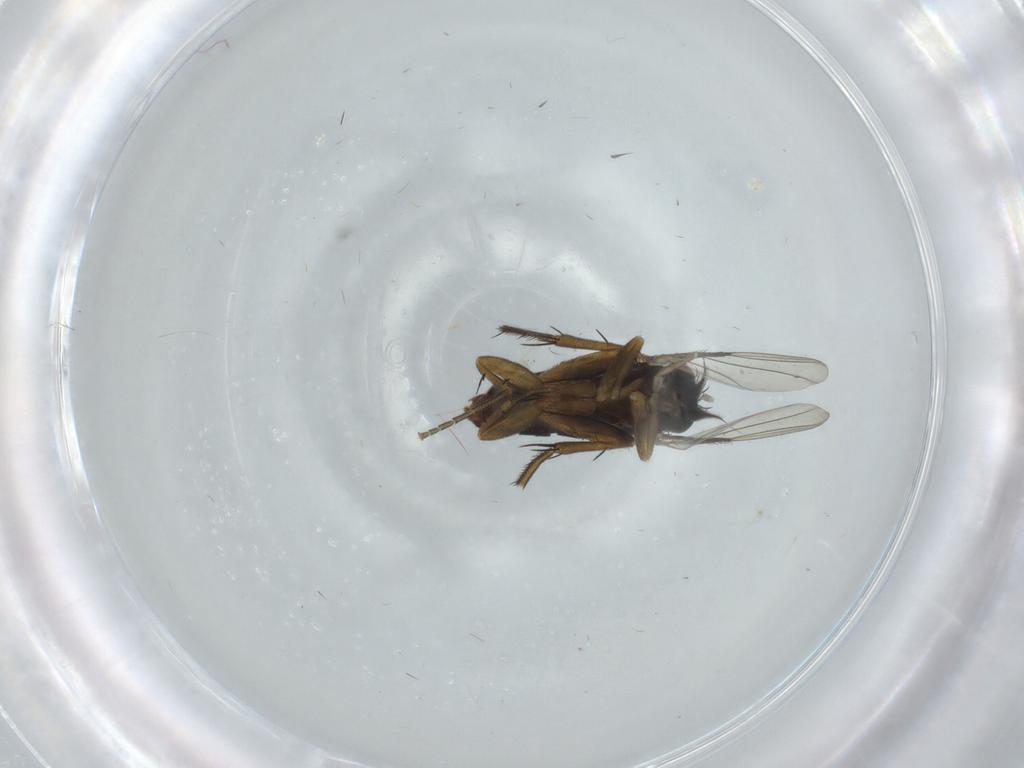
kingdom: Animalia
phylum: Arthropoda
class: Insecta
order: Diptera
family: Phoridae
